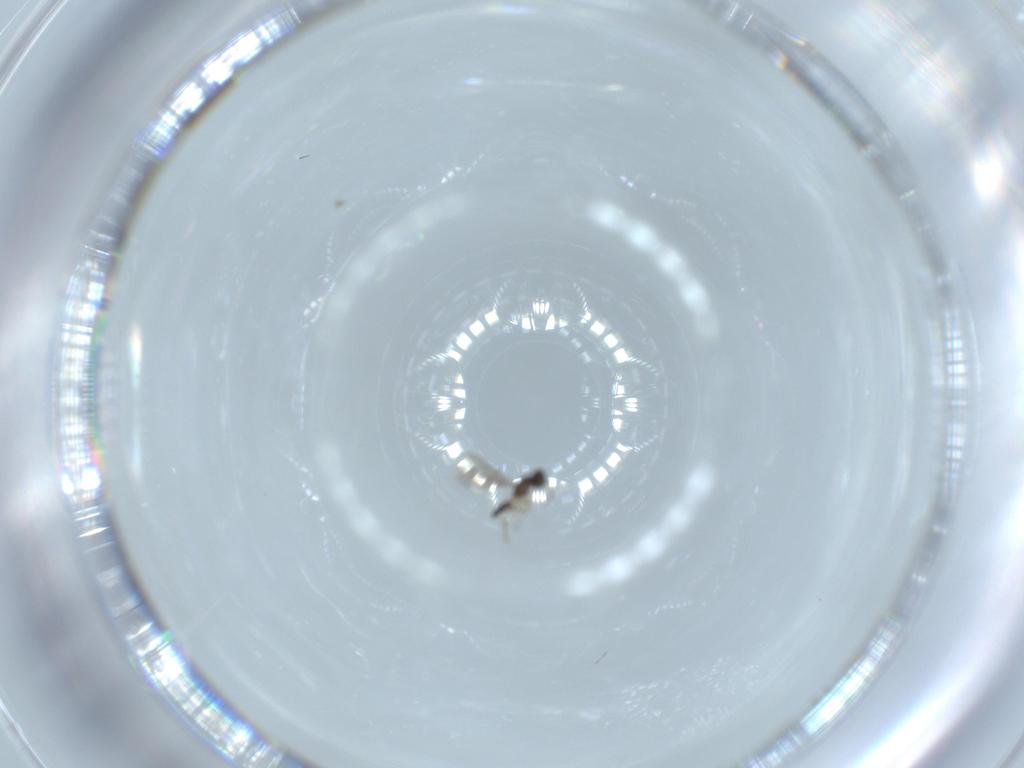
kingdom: Animalia
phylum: Arthropoda
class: Insecta
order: Hymenoptera
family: Ceraphronidae
